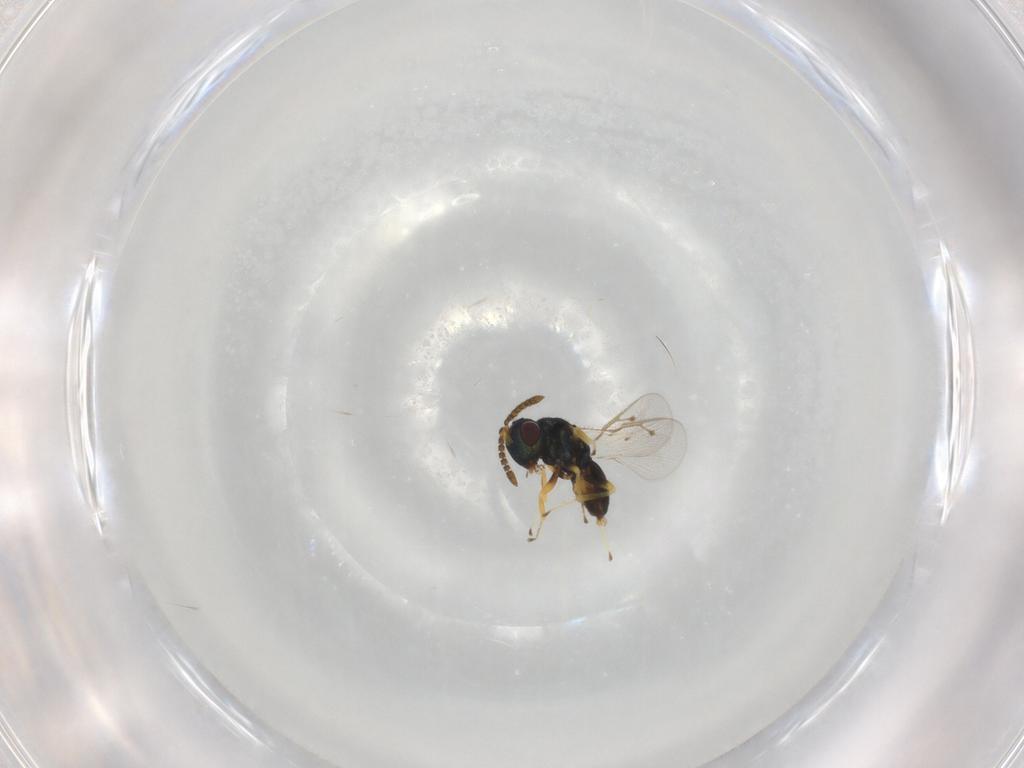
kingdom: Animalia
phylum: Arthropoda
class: Insecta
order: Hymenoptera
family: Pteromalidae
